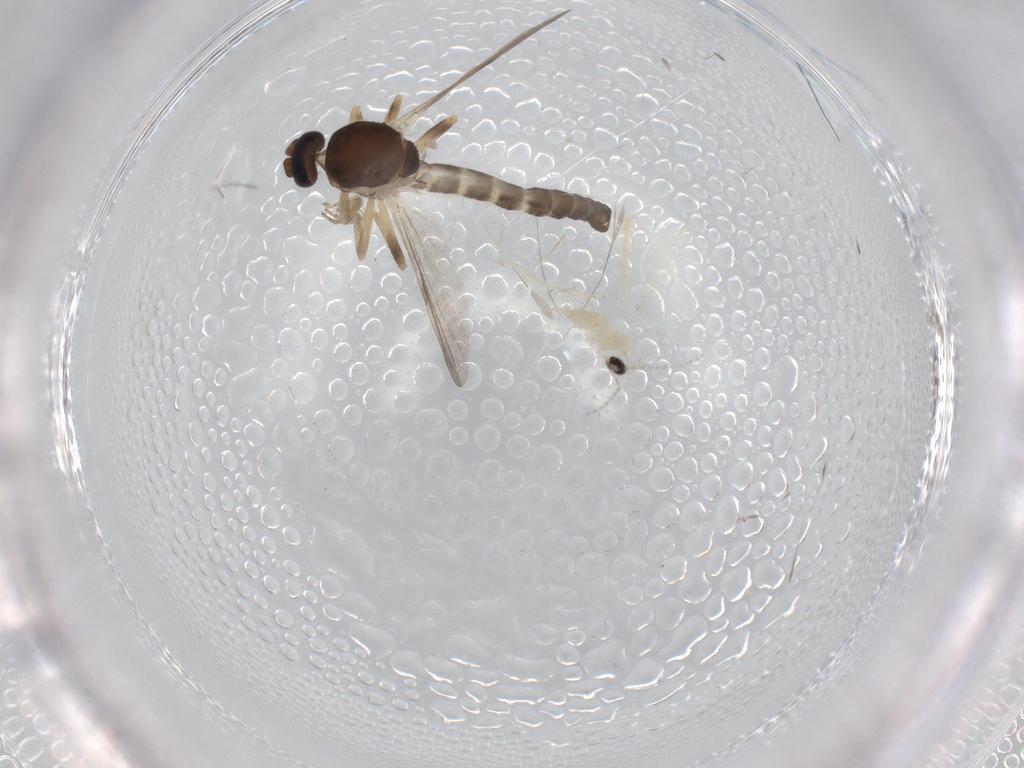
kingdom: Animalia
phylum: Arthropoda
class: Insecta
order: Diptera
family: Ceratopogonidae
